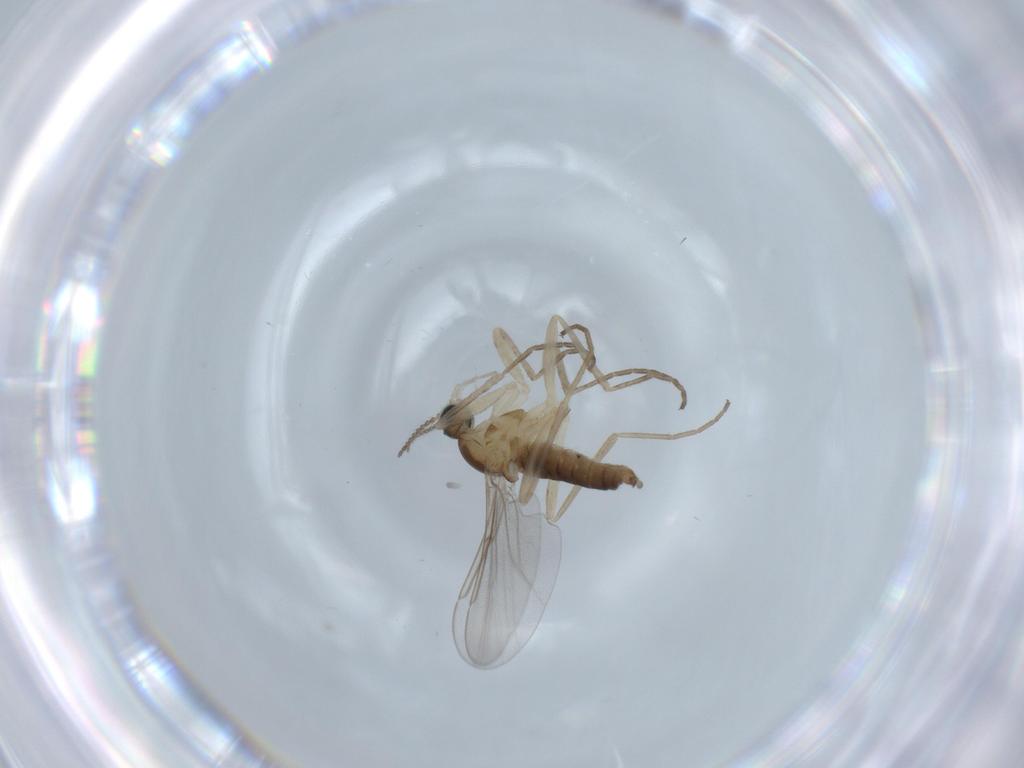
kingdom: Animalia
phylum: Arthropoda
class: Insecta
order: Diptera
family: Cecidomyiidae
